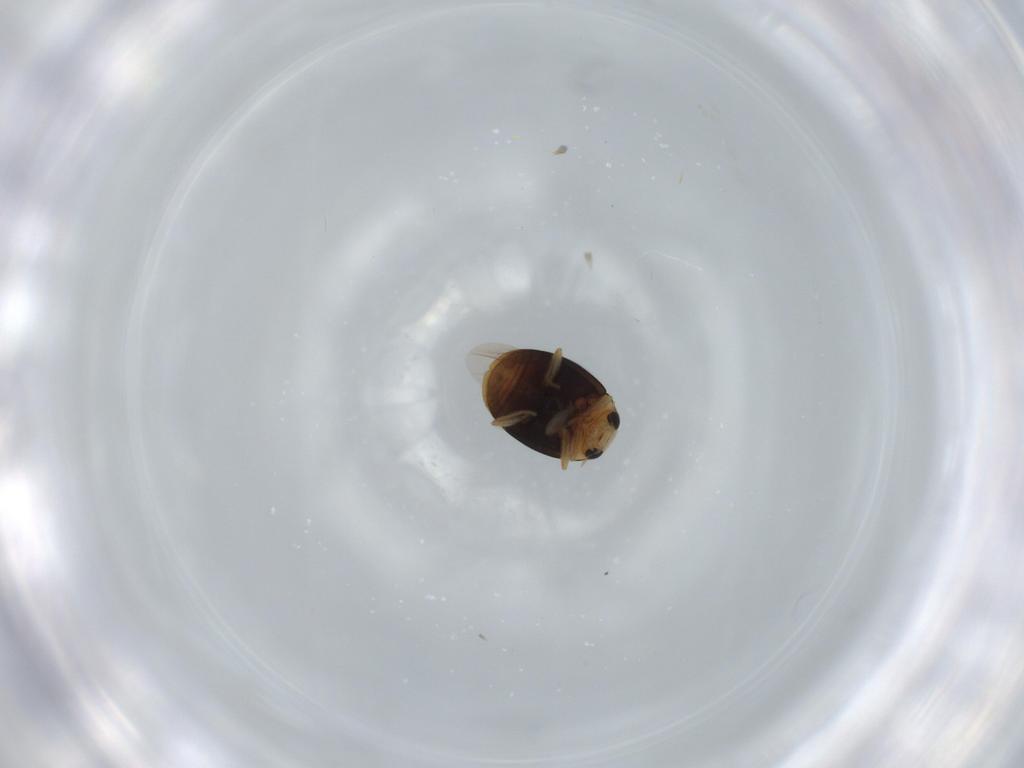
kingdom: Animalia
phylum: Arthropoda
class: Insecta
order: Coleoptera
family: Coccinellidae
